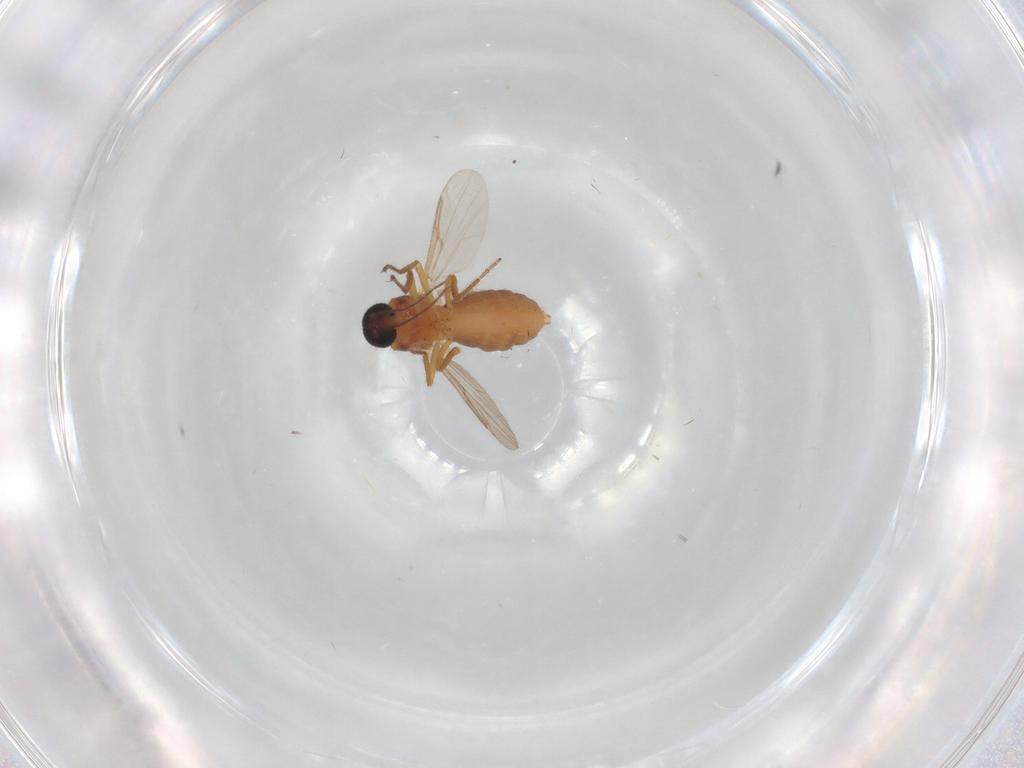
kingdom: Animalia
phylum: Arthropoda
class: Insecta
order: Diptera
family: Ceratopogonidae
